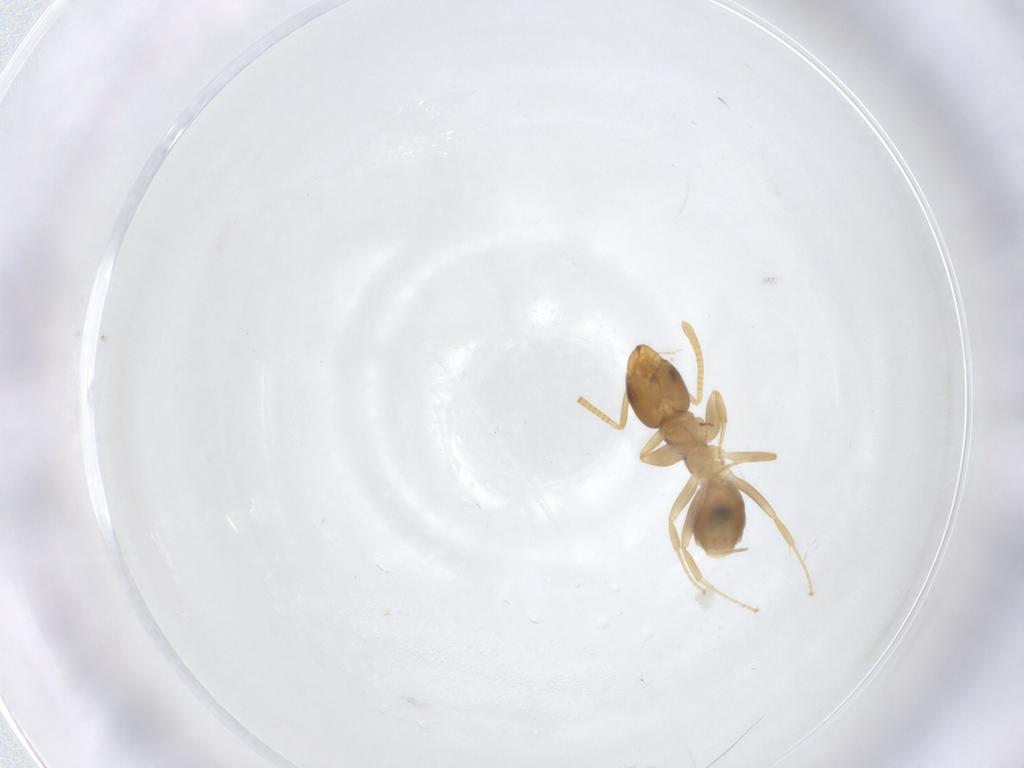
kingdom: Animalia
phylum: Arthropoda
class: Insecta
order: Hymenoptera
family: Formicidae
